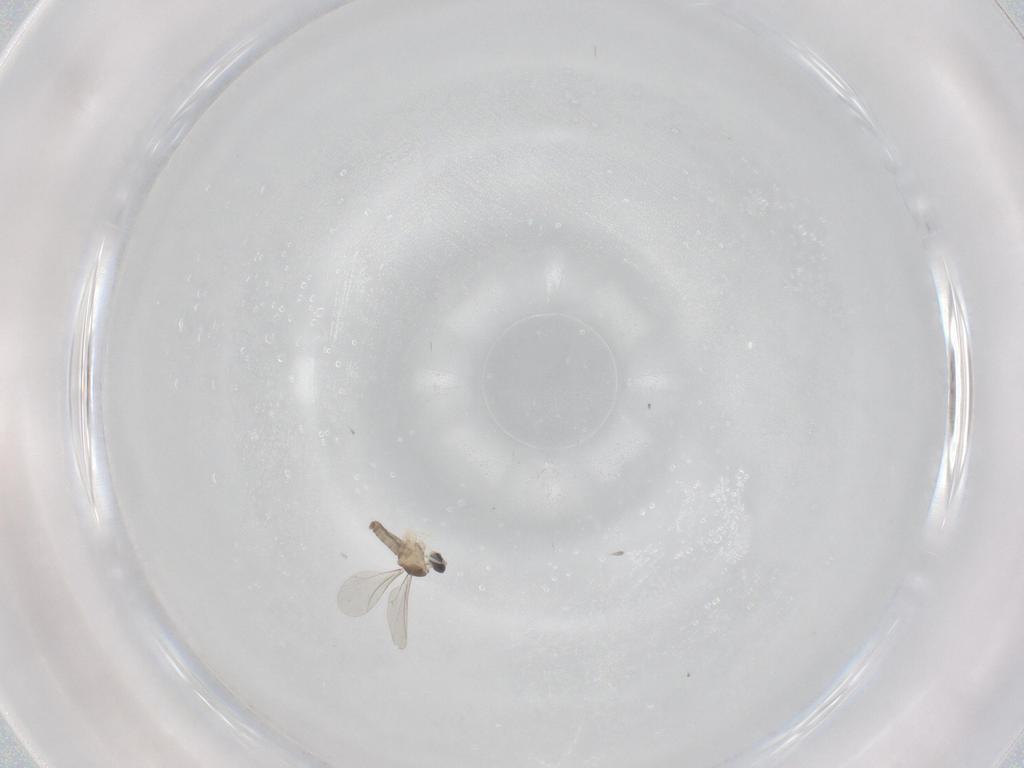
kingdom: Animalia
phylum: Arthropoda
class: Insecta
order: Diptera
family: Cecidomyiidae
